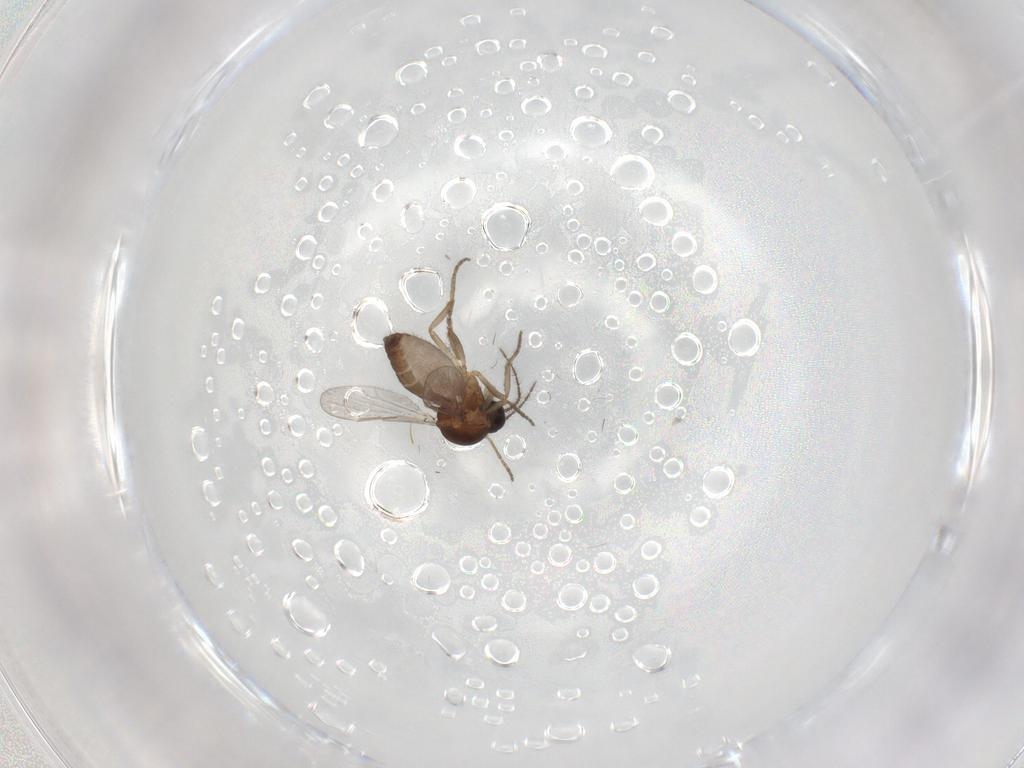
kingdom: Animalia
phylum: Arthropoda
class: Insecta
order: Diptera
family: Ceratopogonidae
